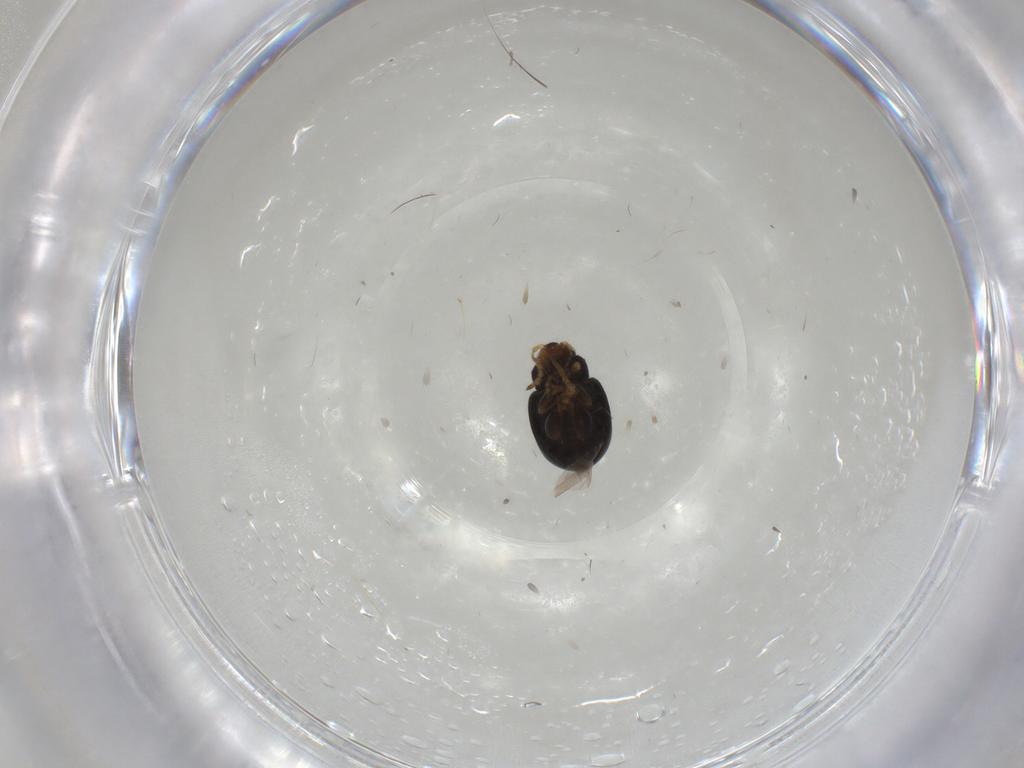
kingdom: Animalia
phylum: Arthropoda
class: Insecta
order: Coleoptera
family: Chrysomelidae
